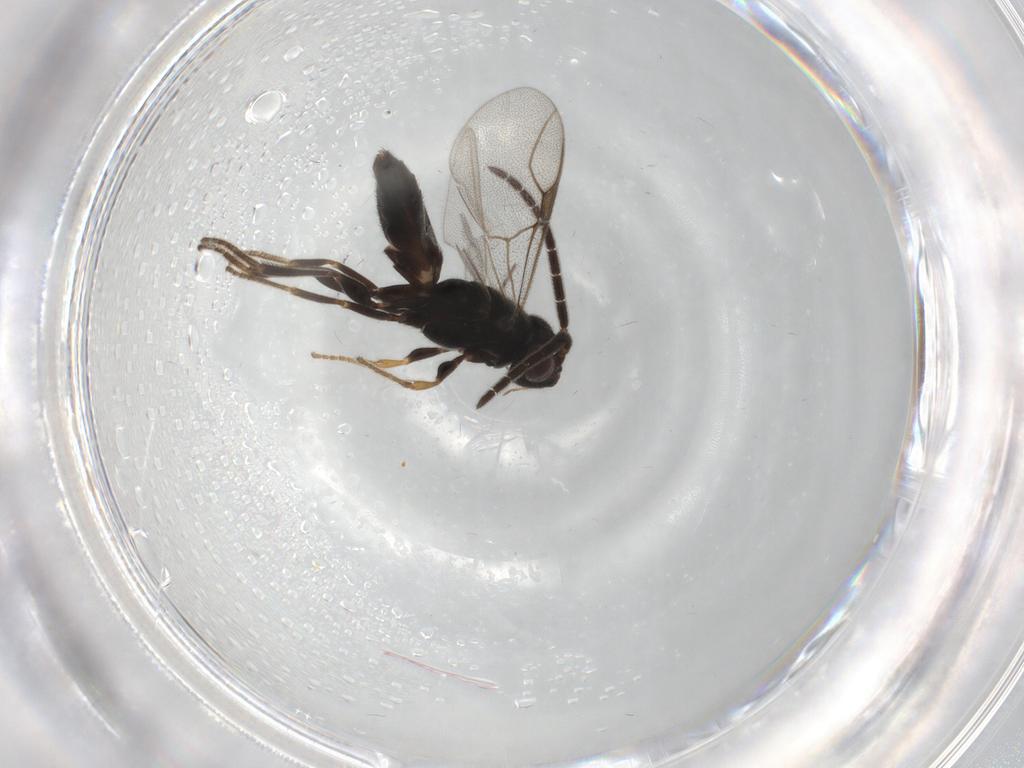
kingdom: Animalia
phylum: Arthropoda
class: Insecta
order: Hymenoptera
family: Dryinidae
